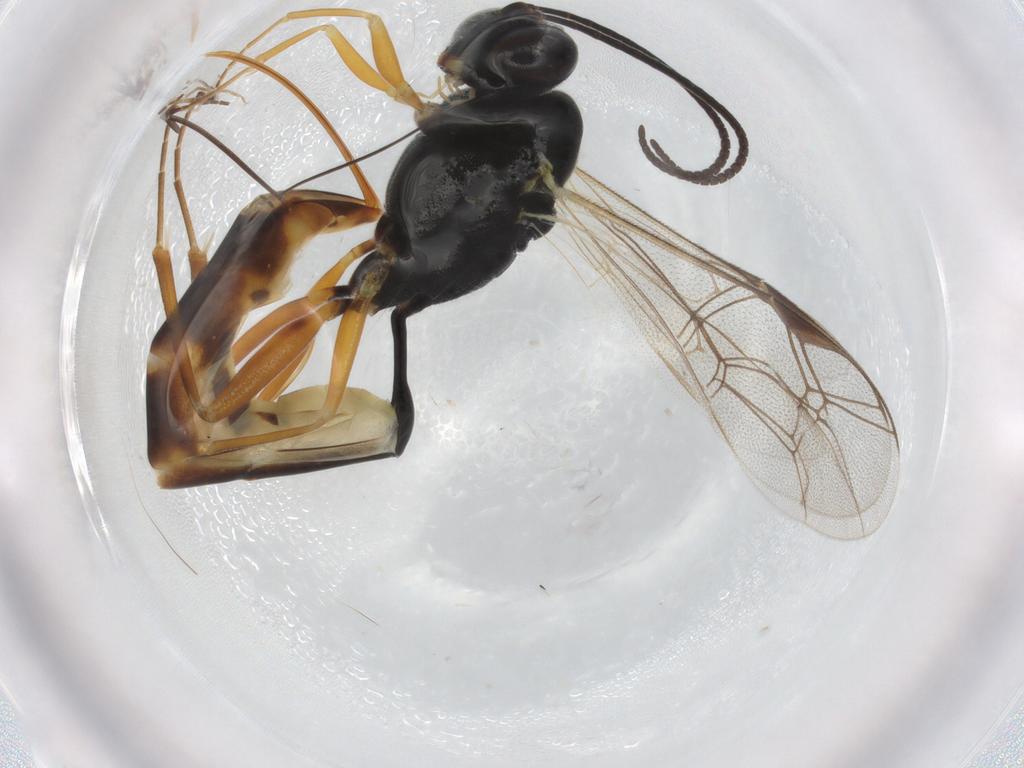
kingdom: Animalia
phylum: Arthropoda
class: Insecta
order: Hymenoptera
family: Ichneumonidae
